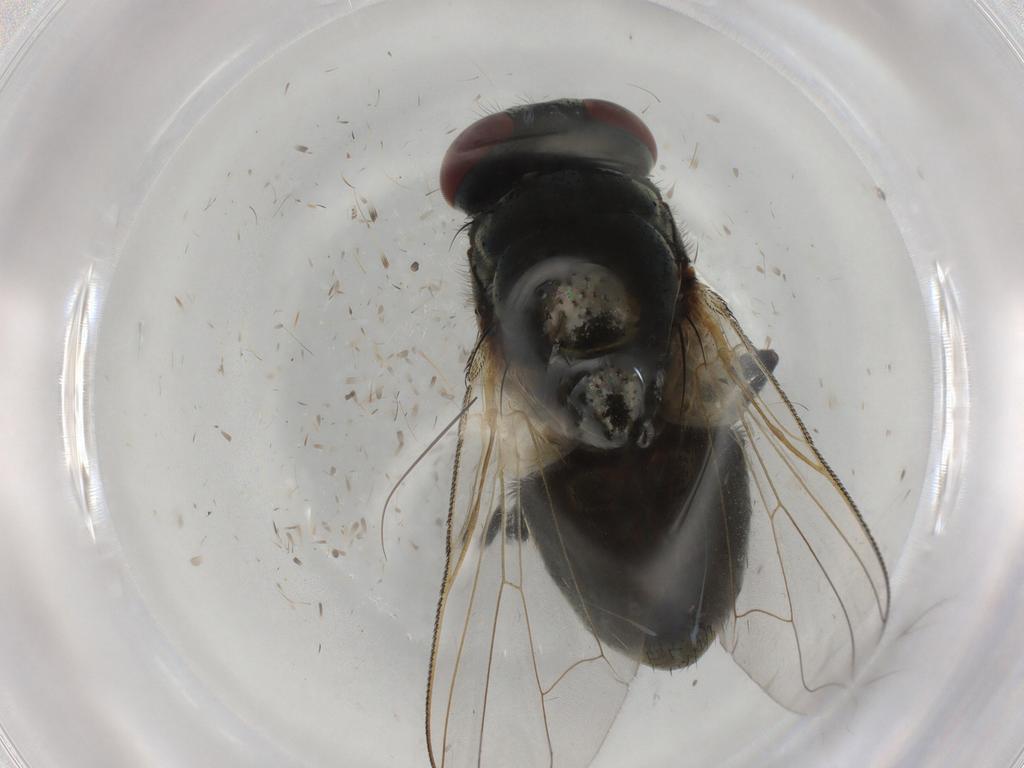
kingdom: Animalia
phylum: Arthropoda
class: Insecta
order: Diptera
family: Muscidae
